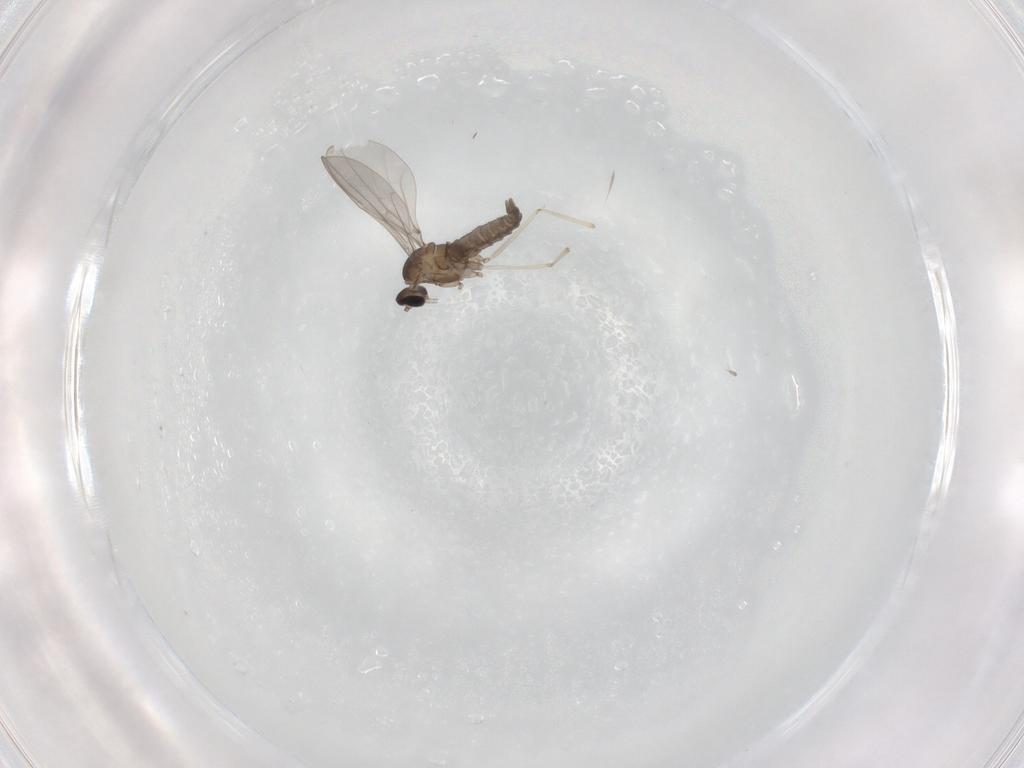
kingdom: Animalia
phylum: Arthropoda
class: Insecta
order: Diptera
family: Cecidomyiidae
